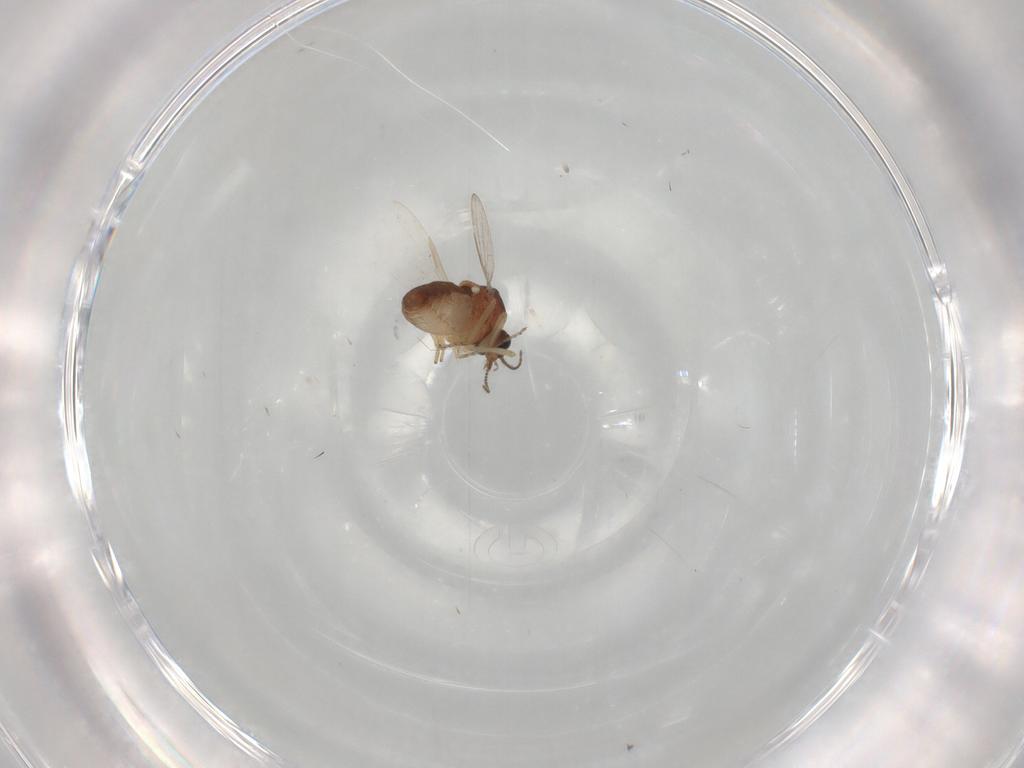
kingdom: Animalia
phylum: Arthropoda
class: Insecta
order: Diptera
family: Ceratopogonidae
